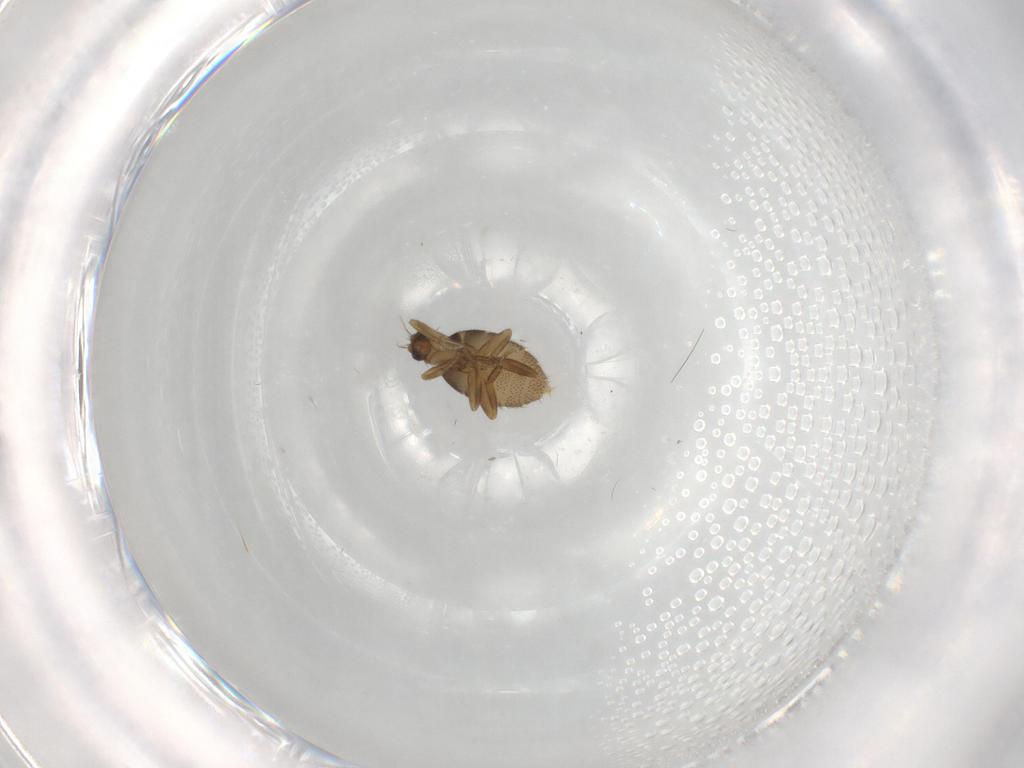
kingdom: Animalia
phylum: Arthropoda
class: Insecta
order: Diptera
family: Phoridae
